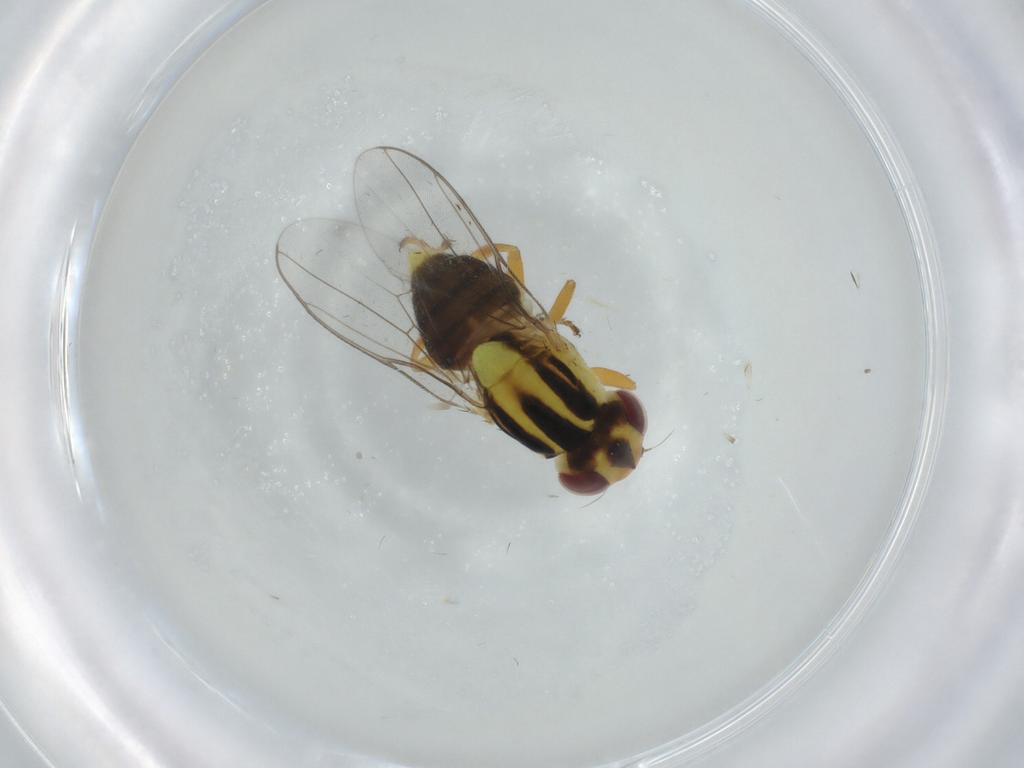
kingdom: Animalia
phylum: Arthropoda
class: Insecta
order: Diptera
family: Chloropidae
